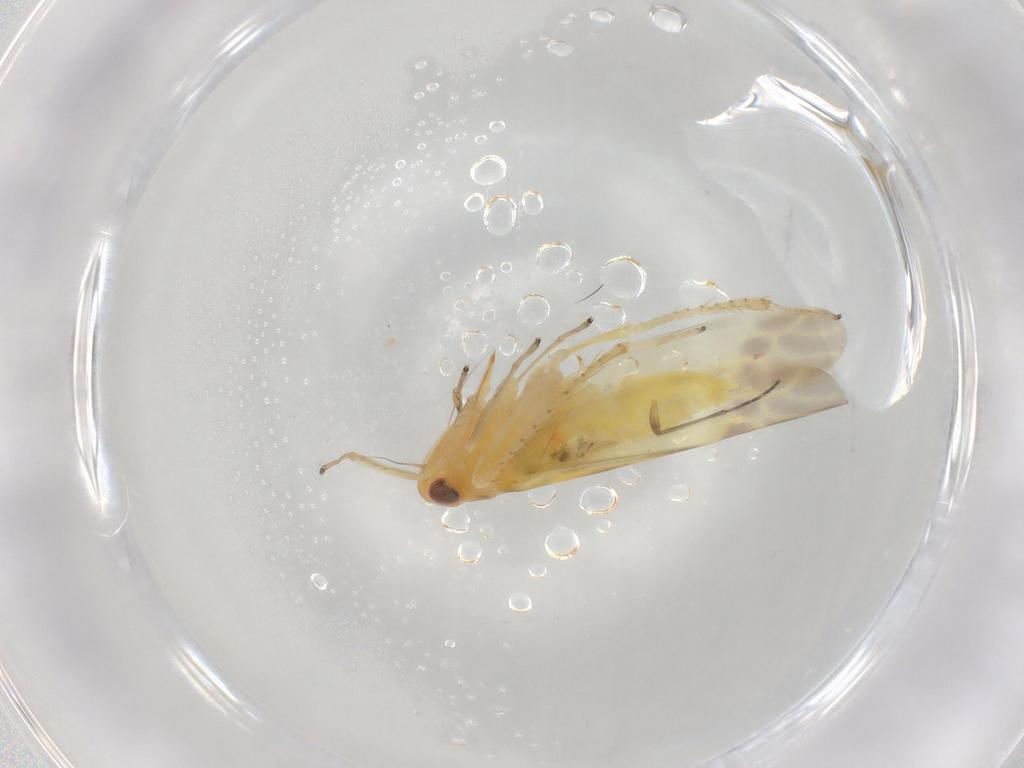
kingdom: Animalia
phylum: Arthropoda
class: Insecta
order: Hemiptera
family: Cicadellidae
